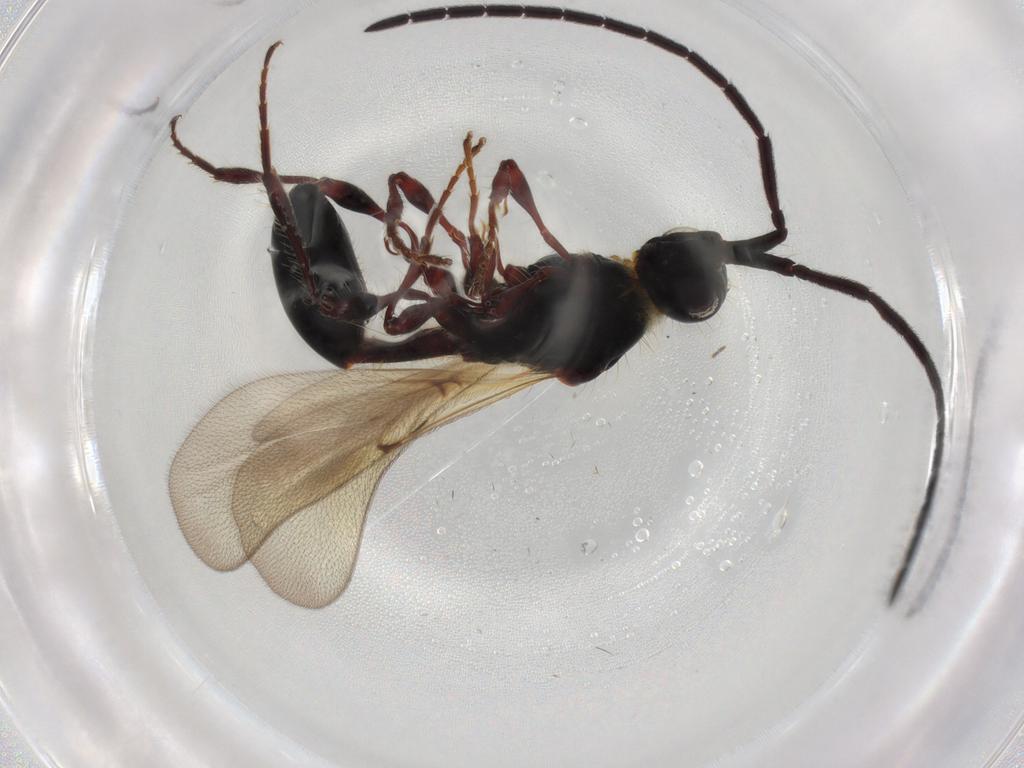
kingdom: Animalia
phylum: Arthropoda
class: Insecta
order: Hymenoptera
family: Diapriidae
